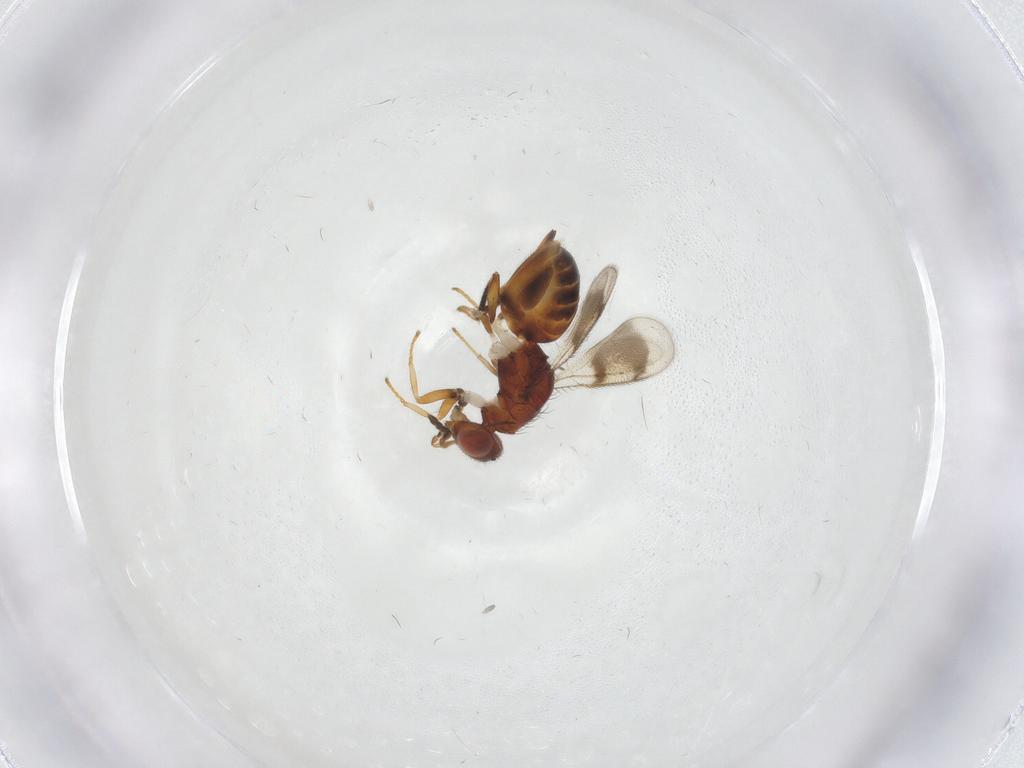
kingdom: Animalia
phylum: Arthropoda
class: Insecta
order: Hymenoptera
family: Eulophidae
